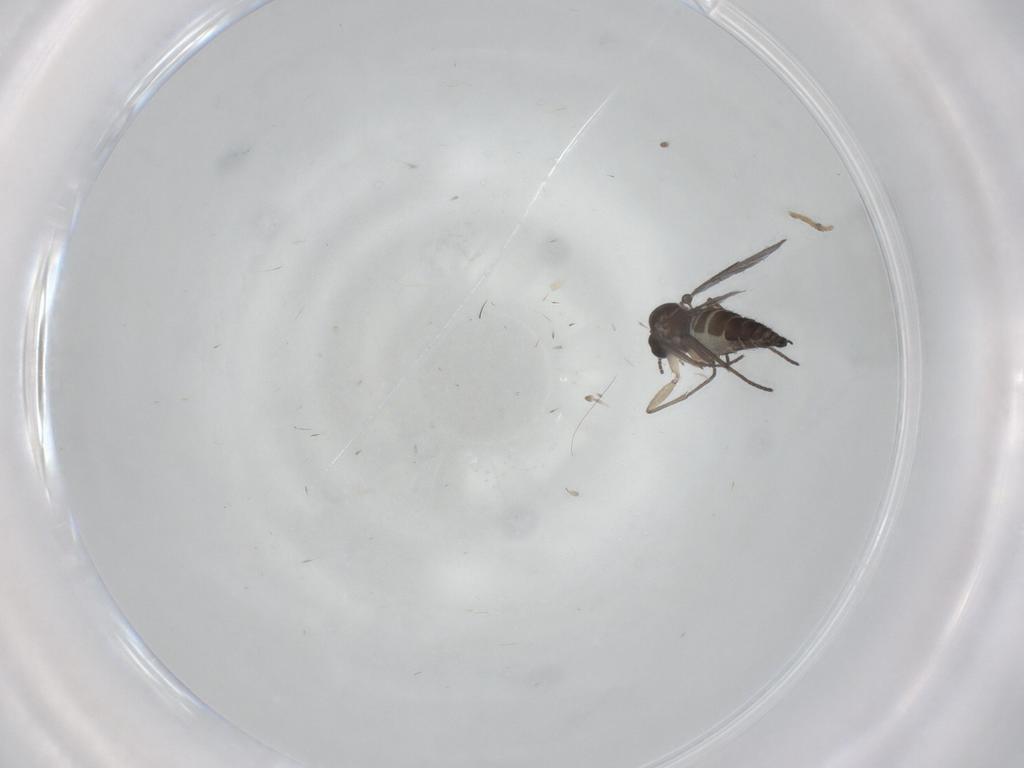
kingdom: Animalia
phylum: Arthropoda
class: Insecta
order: Diptera
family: Sciaridae
